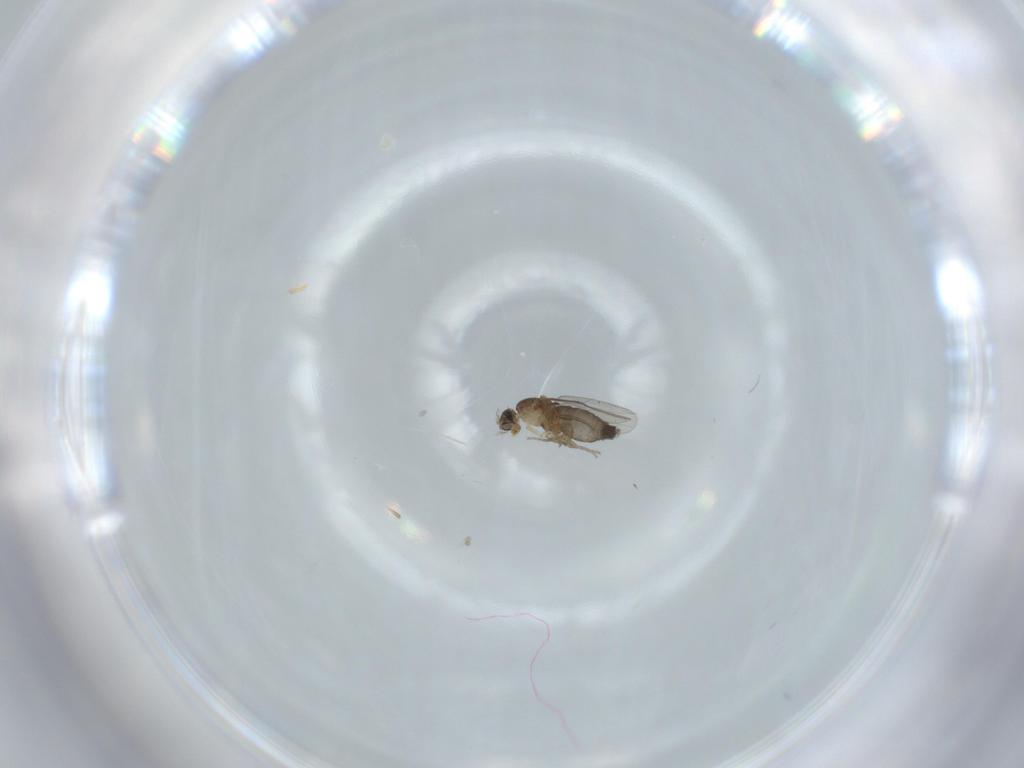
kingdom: Animalia
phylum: Arthropoda
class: Insecta
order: Diptera
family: Phoridae
